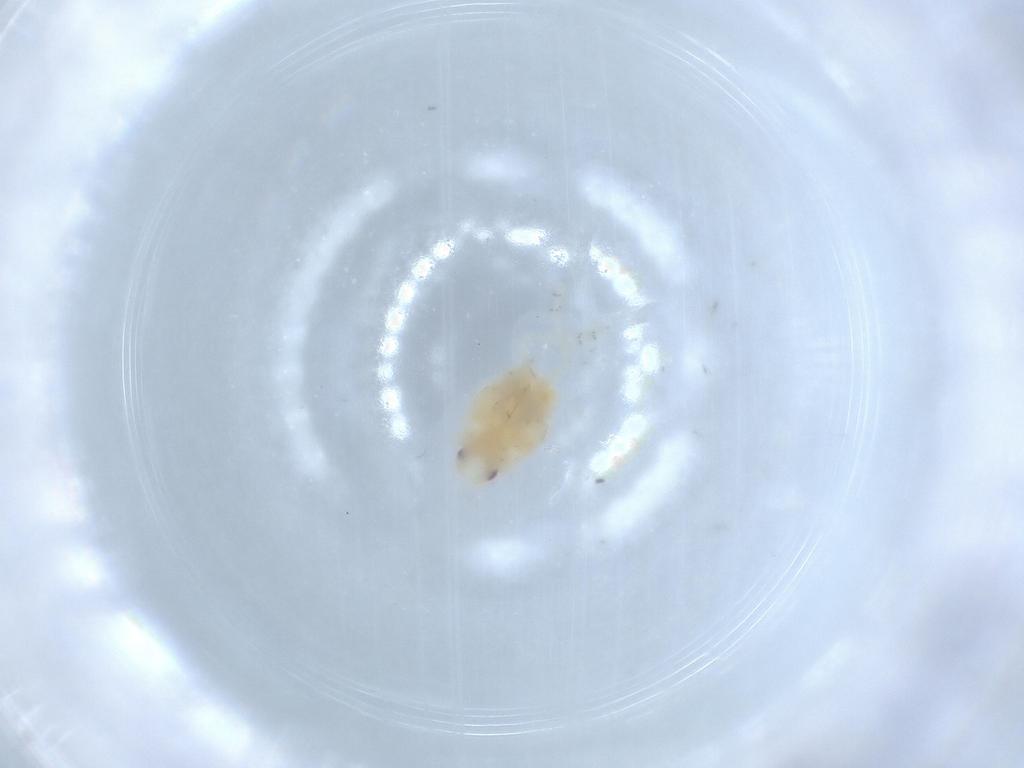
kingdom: Animalia
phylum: Arthropoda
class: Insecta
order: Hemiptera
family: Flatidae
